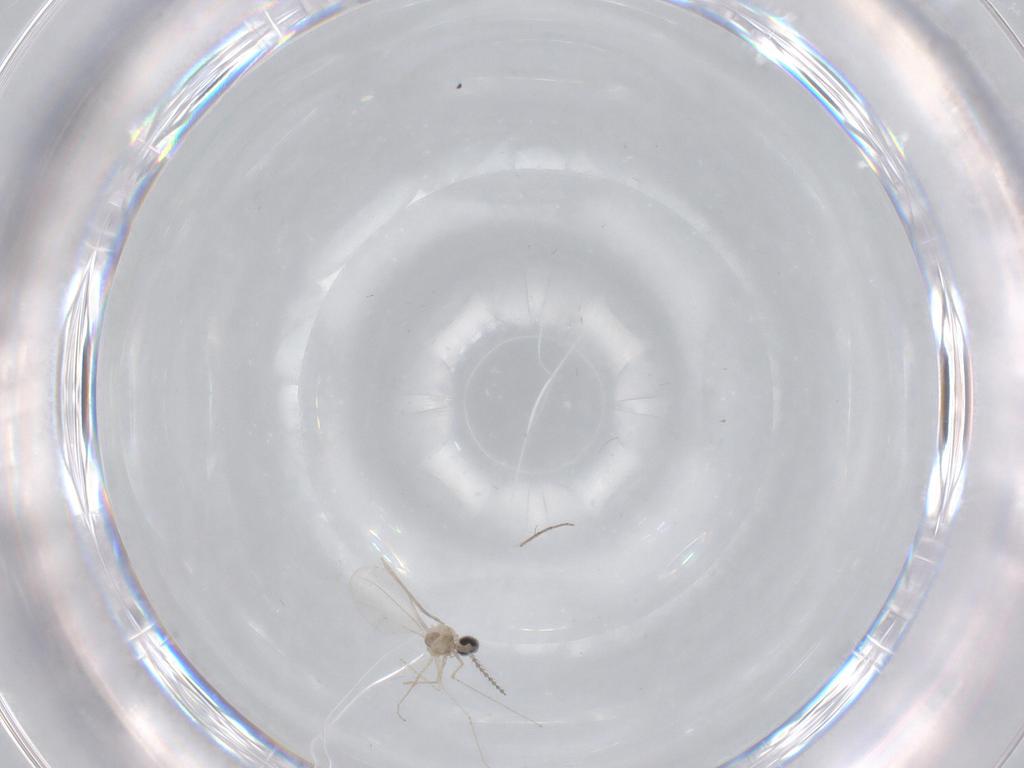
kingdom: Animalia
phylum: Arthropoda
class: Insecta
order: Diptera
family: Cecidomyiidae
